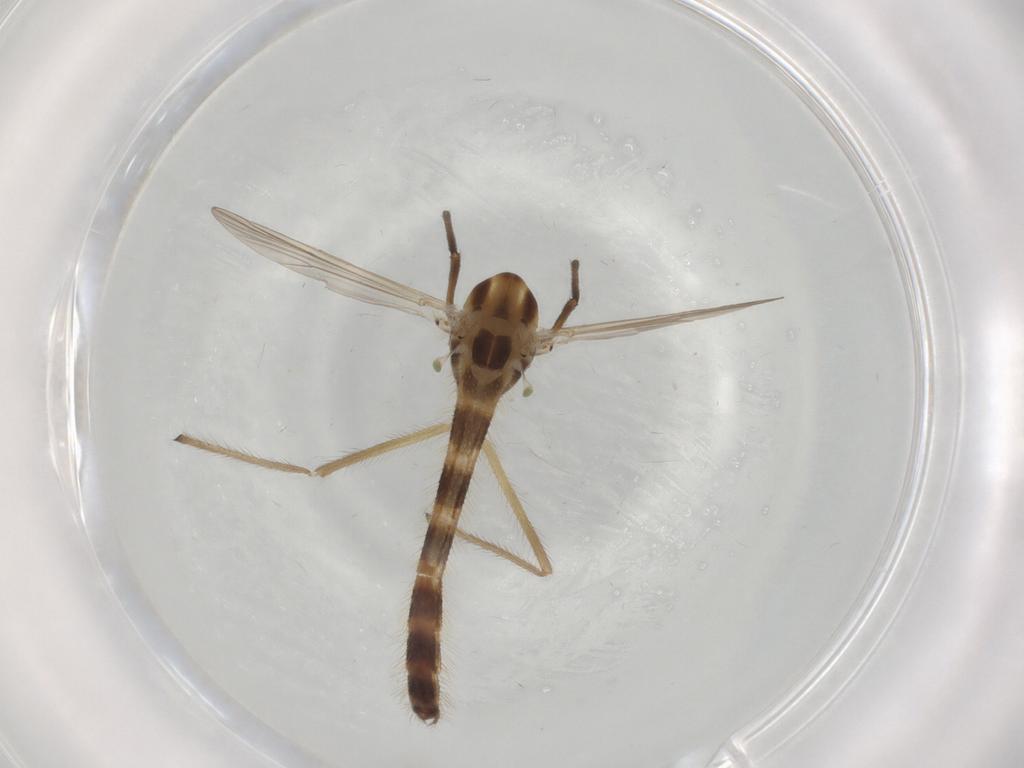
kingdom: Animalia
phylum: Arthropoda
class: Insecta
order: Diptera
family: Chironomidae
